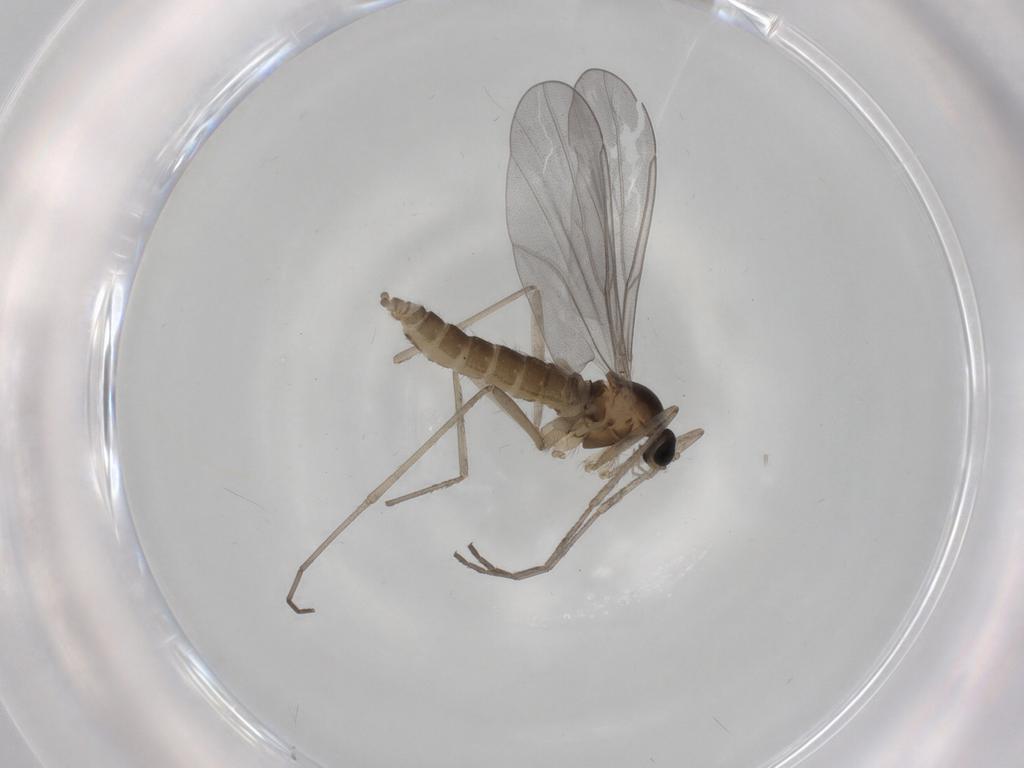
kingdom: Animalia
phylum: Arthropoda
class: Insecta
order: Diptera
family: Cecidomyiidae
